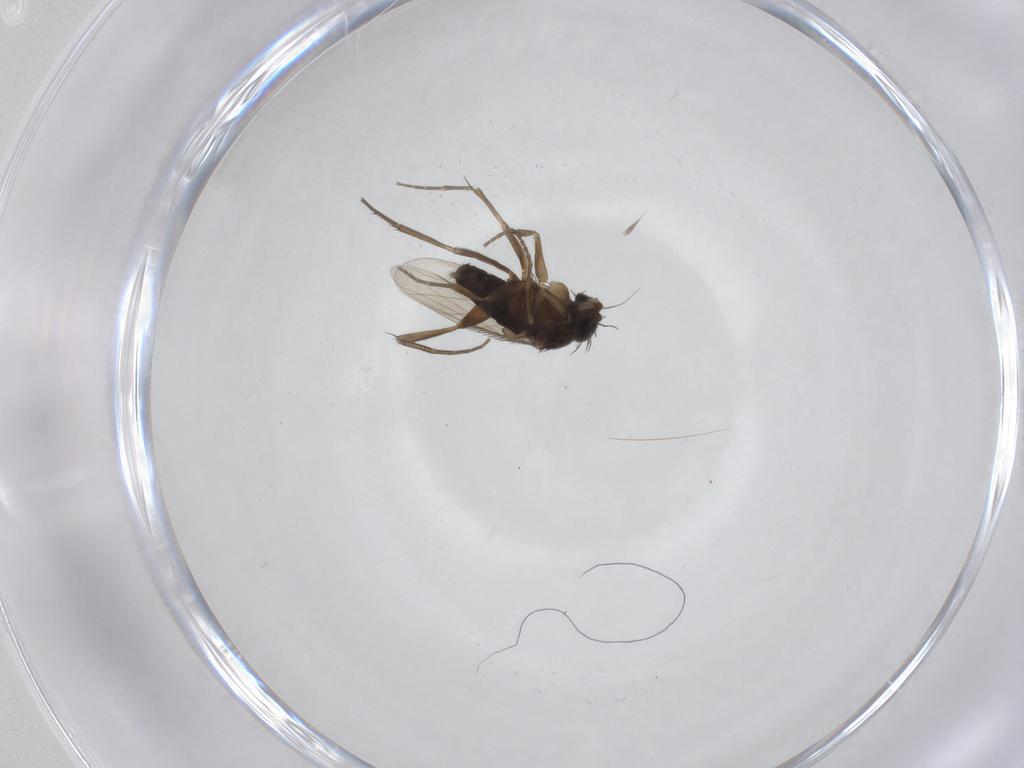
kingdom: Animalia
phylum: Arthropoda
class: Insecta
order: Diptera
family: Phoridae
